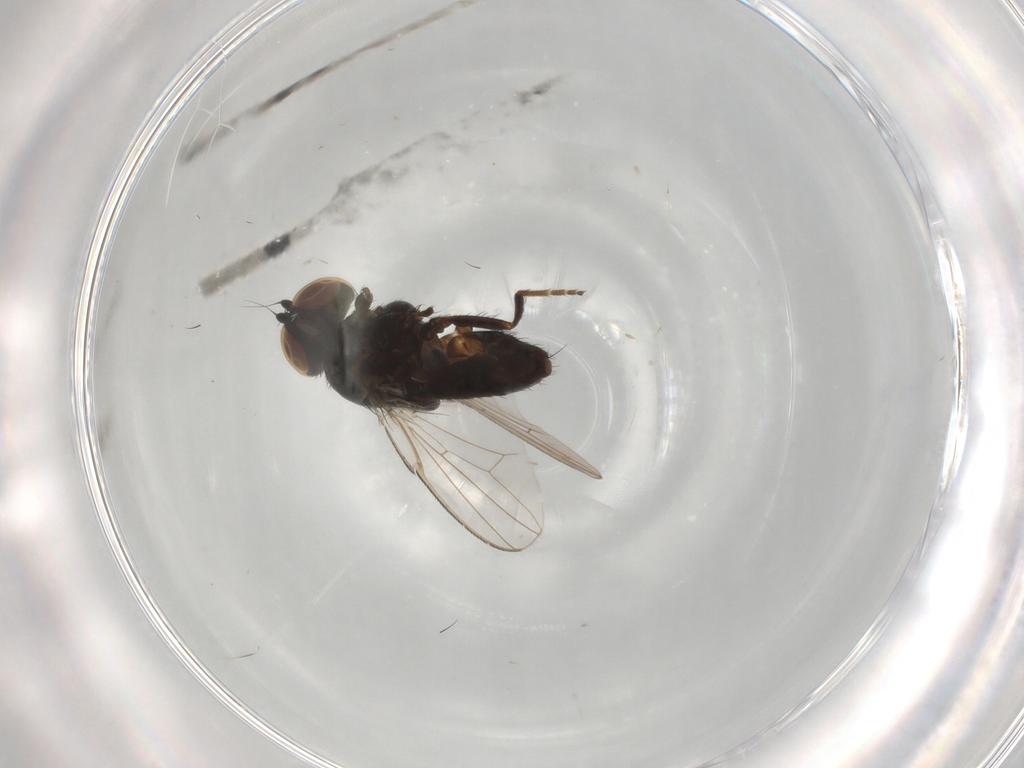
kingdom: Animalia
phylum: Arthropoda
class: Insecta
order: Diptera
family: Milichiidae
